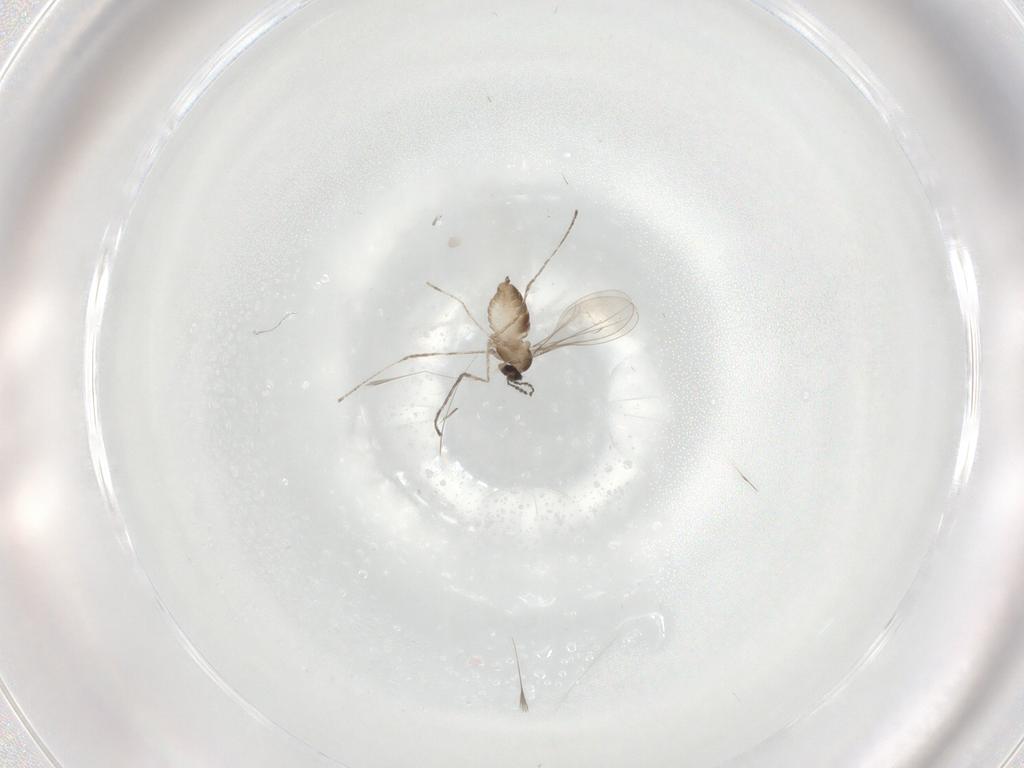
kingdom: Animalia
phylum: Arthropoda
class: Insecta
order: Diptera
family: Cecidomyiidae
